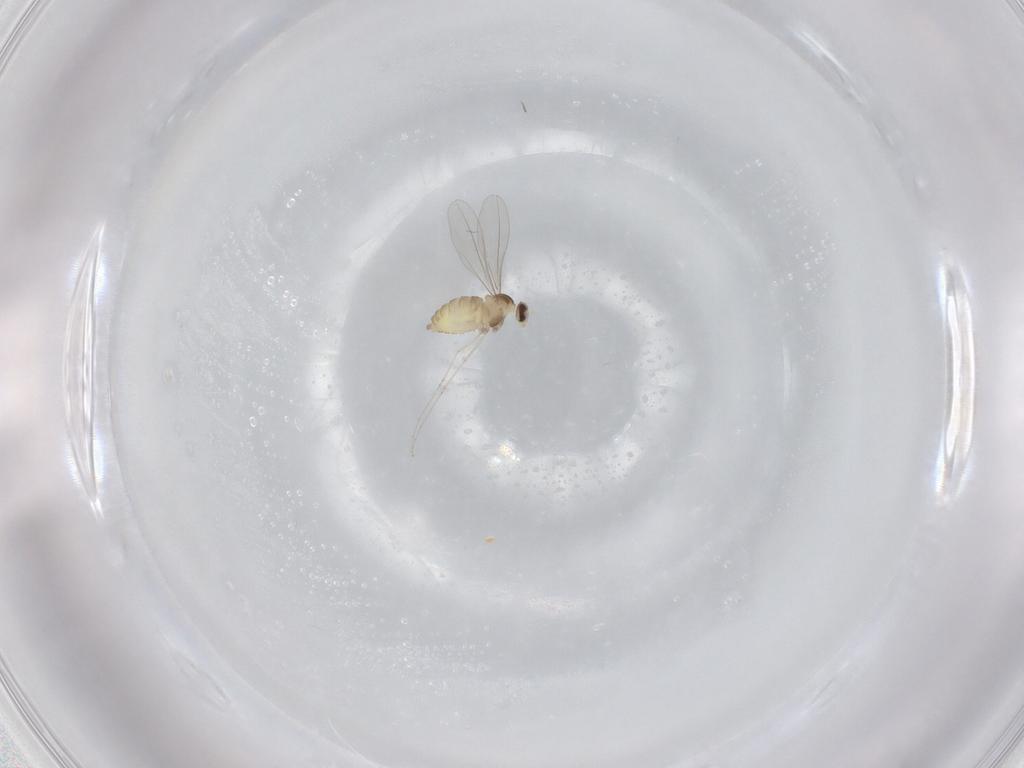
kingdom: Animalia
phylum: Arthropoda
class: Insecta
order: Diptera
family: Cecidomyiidae
